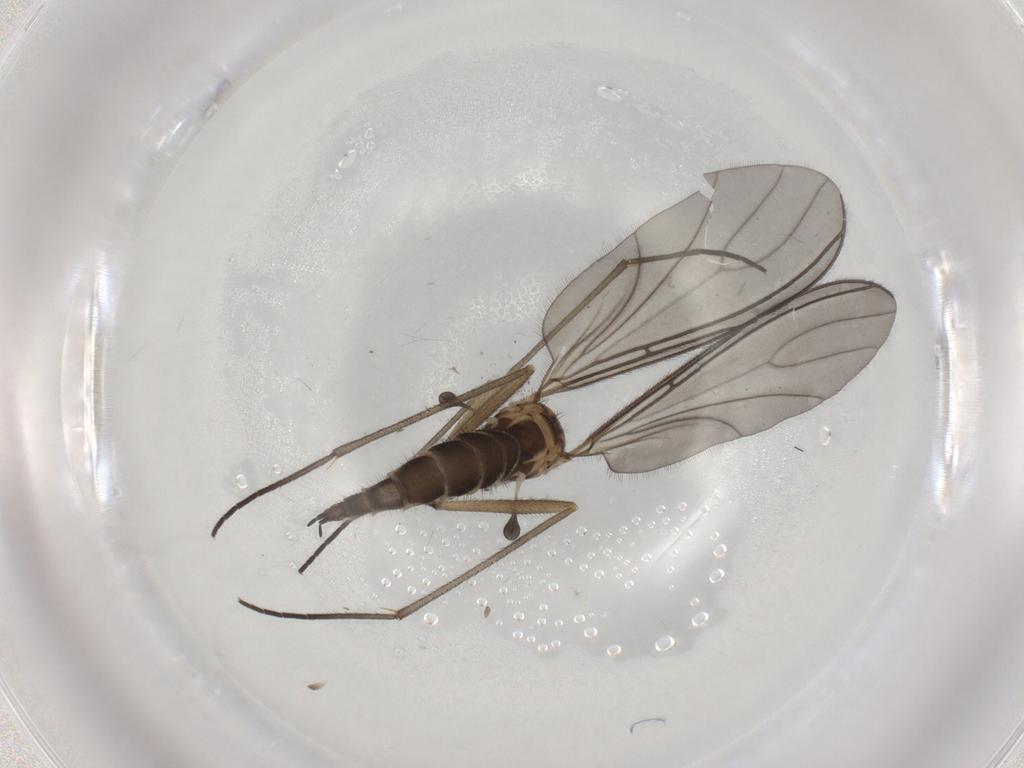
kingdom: Animalia
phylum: Arthropoda
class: Insecta
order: Diptera
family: Sciaridae
